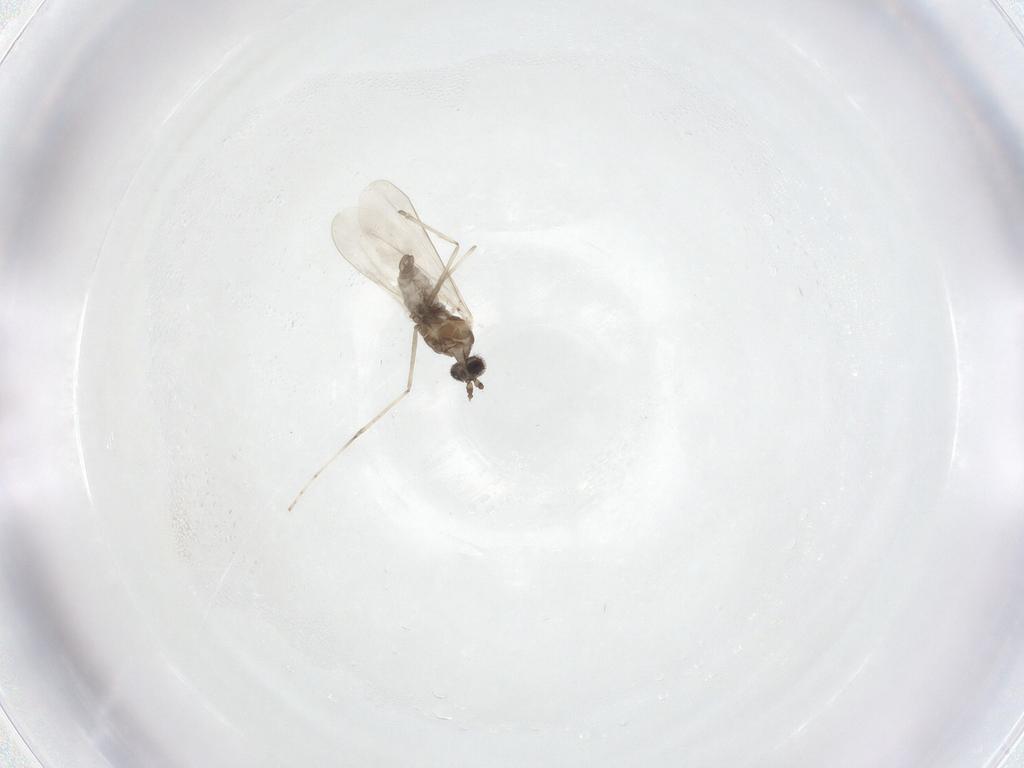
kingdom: Animalia
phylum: Arthropoda
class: Insecta
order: Diptera
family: Cecidomyiidae
